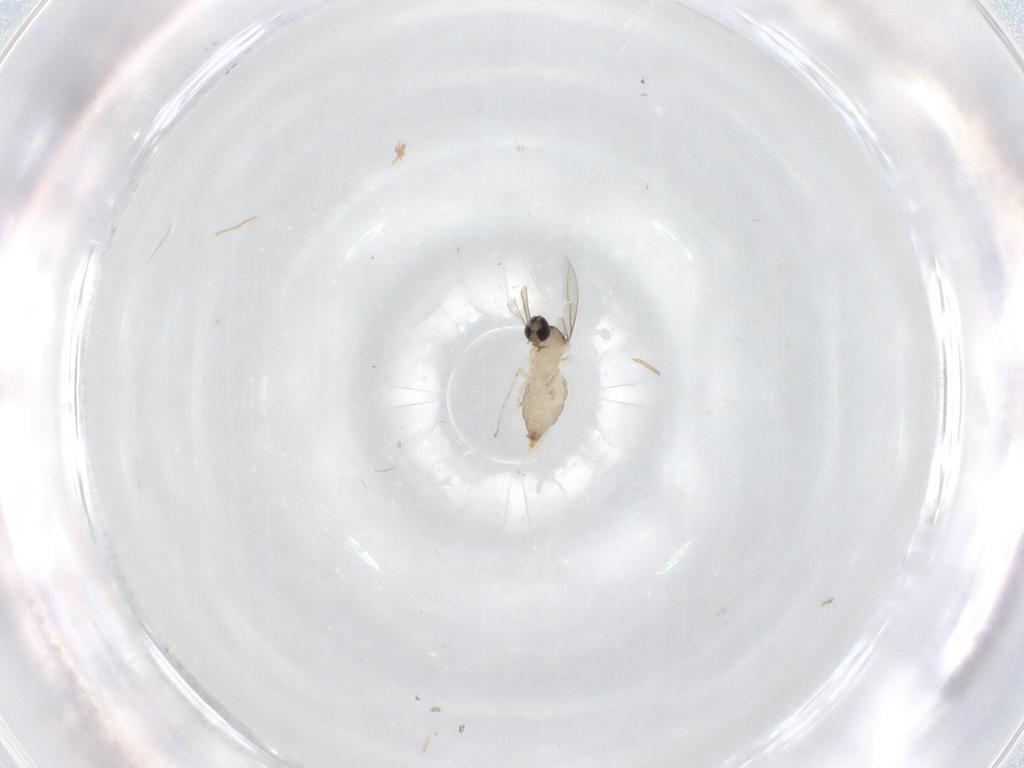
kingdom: Animalia
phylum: Arthropoda
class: Insecta
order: Diptera
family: Cecidomyiidae
